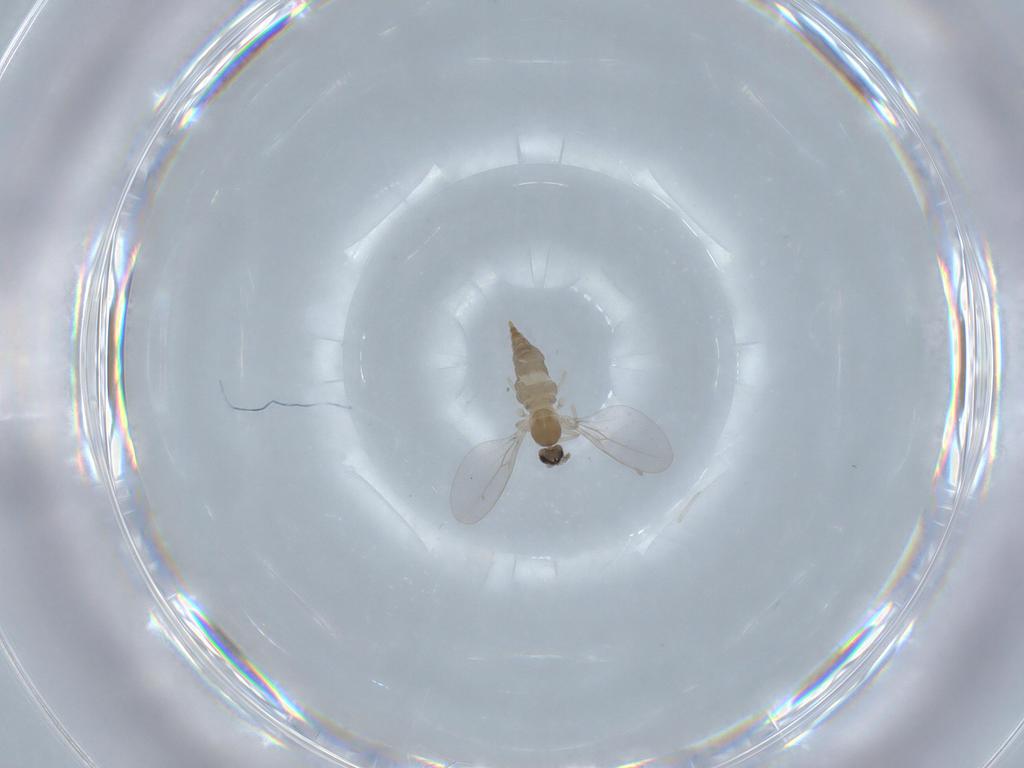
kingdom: Animalia
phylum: Arthropoda
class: Insecta
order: Diptera
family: Cecidomyiidae
